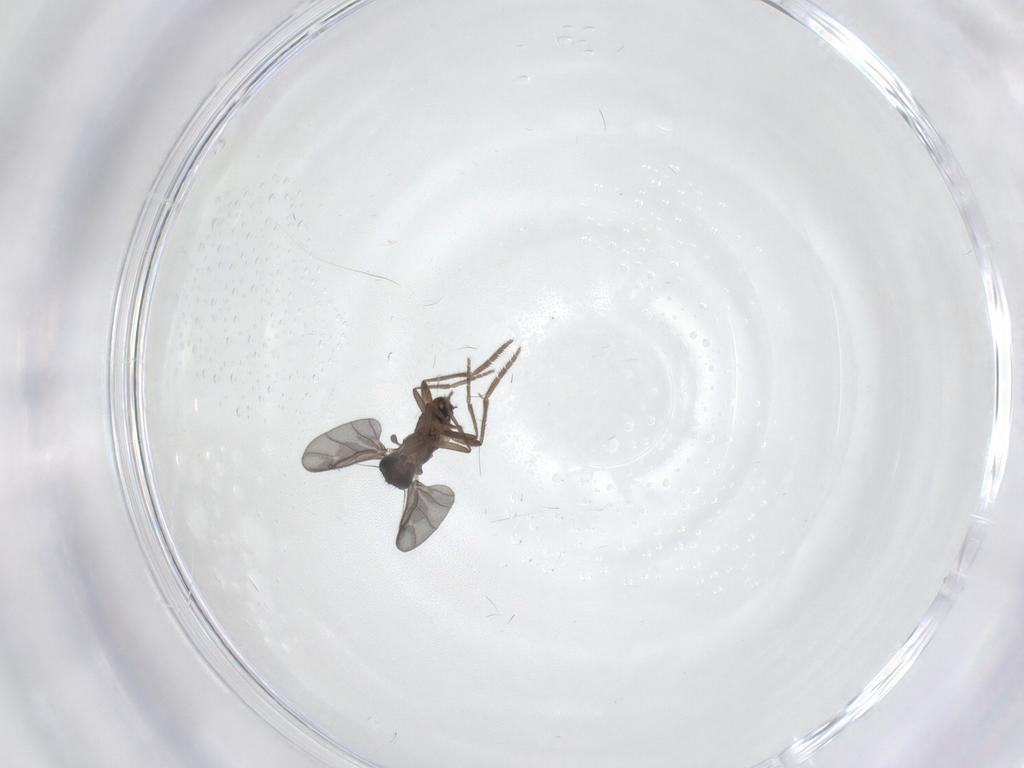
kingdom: Animalia
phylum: Arthropoda
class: Insecta
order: Diptera
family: Phoridae
